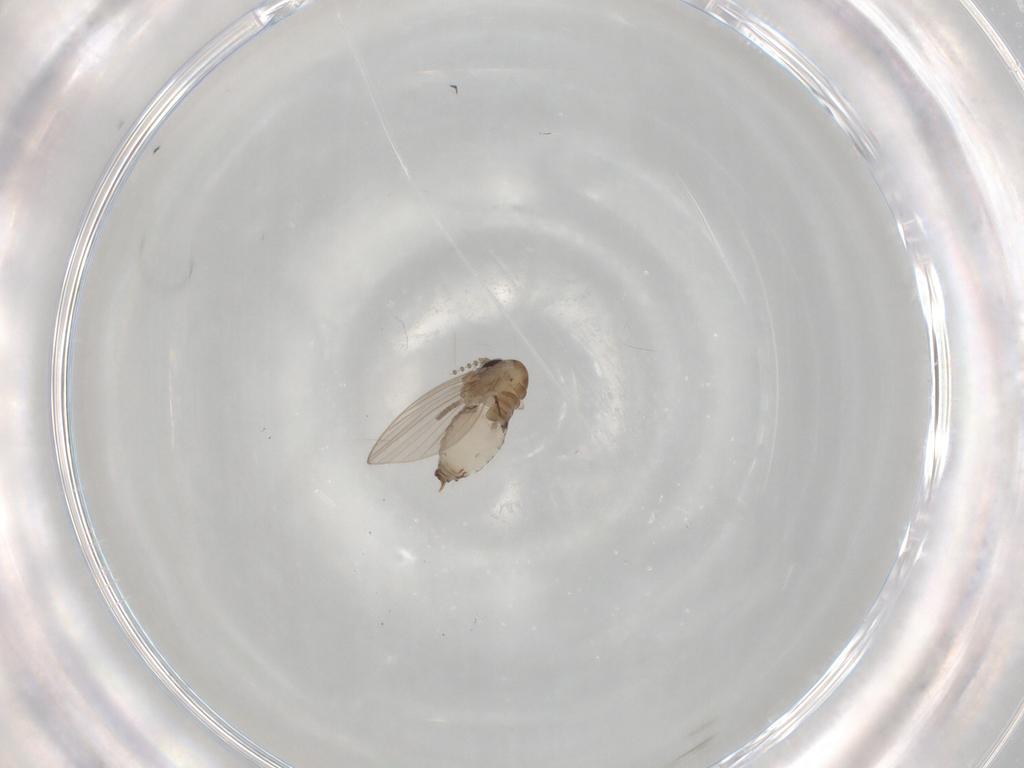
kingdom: Animalia
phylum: Arthropoda
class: Insecta
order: Diptera
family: Psychodidae
